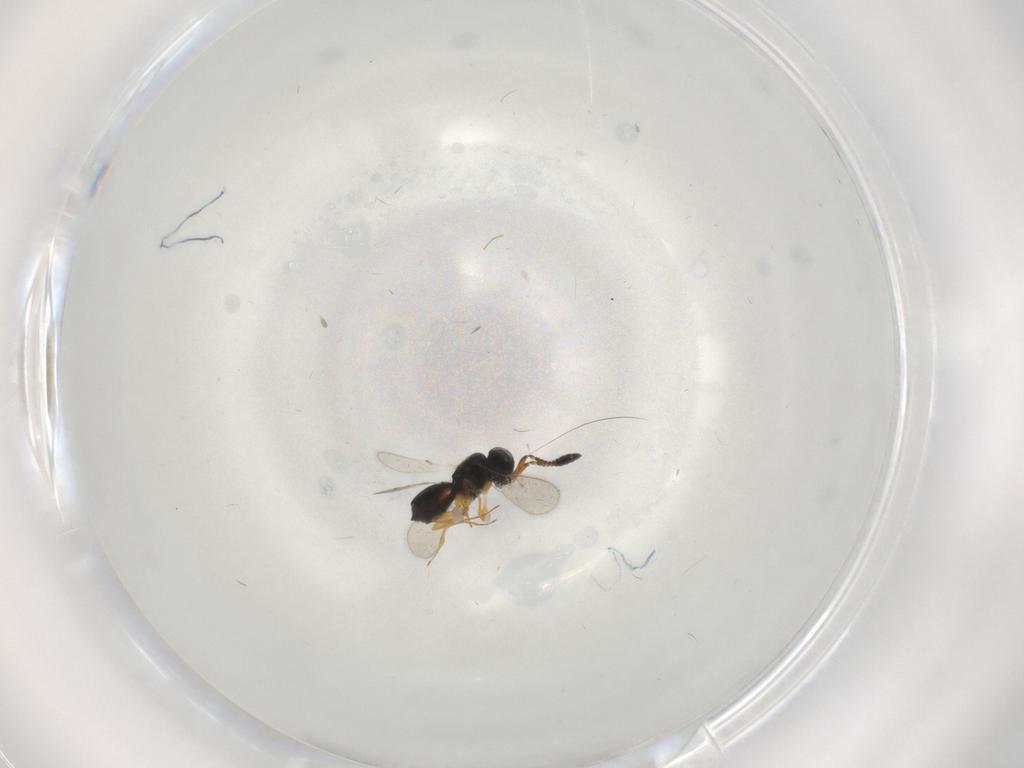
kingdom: Animalia
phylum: Arthropoda
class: Insecta
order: Hymenoptera
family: Scelionidae
